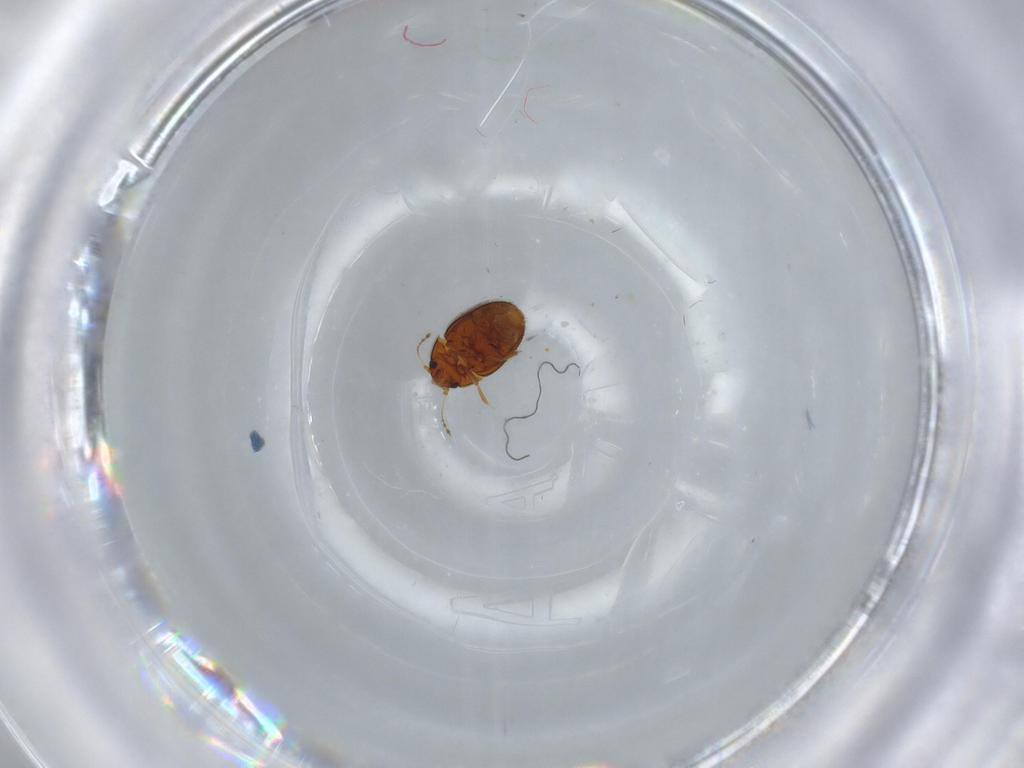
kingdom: Animalia
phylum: Arthropoda
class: Insecta
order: Coleoptera
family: Ptiliidae
